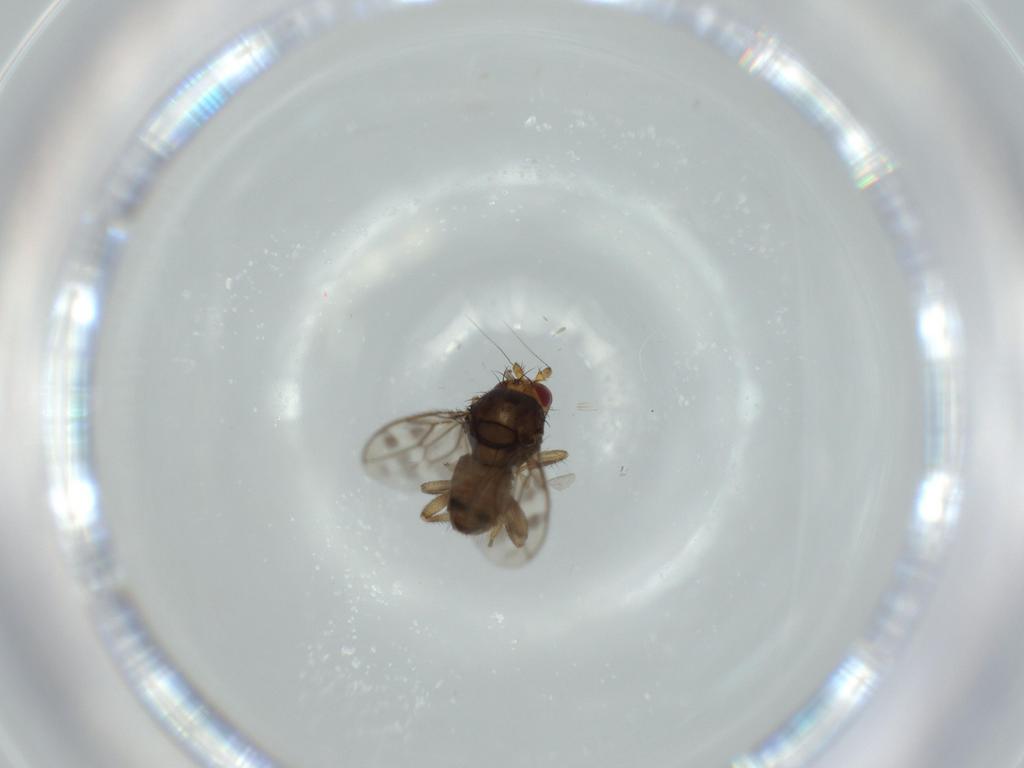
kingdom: Animalia
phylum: Arthropoda
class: Insecta
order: Diptera
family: Sphaeroceridae
